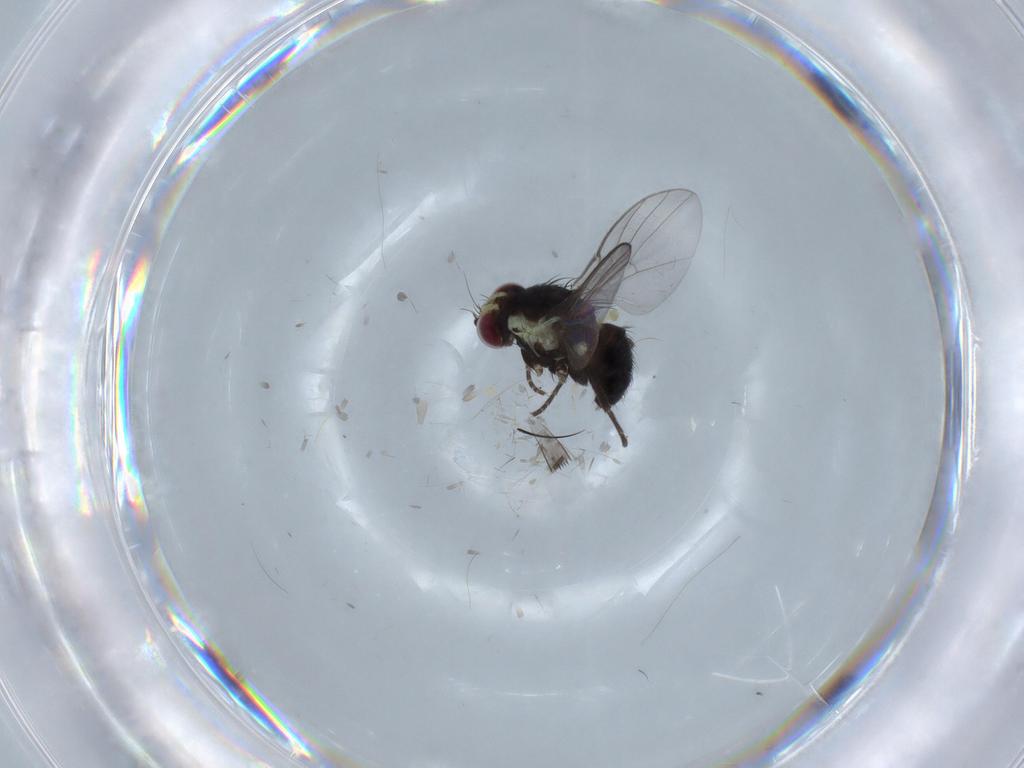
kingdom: Animalia
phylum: Arthropoda
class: Insecta
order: Diptera
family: Agromyzidae
